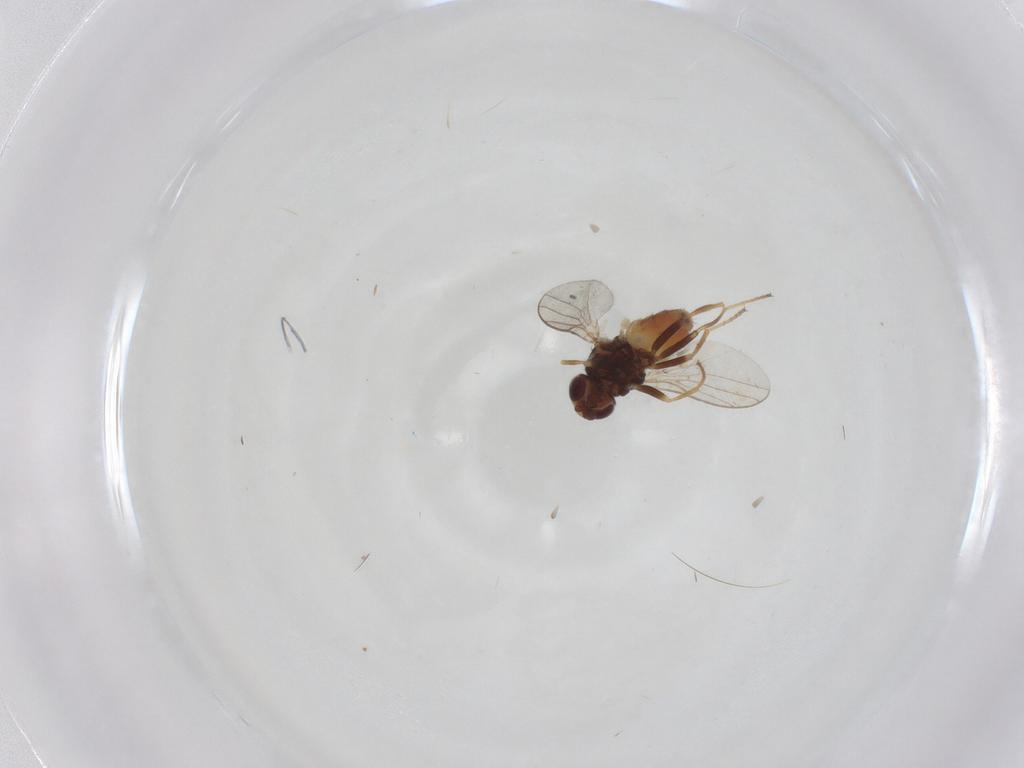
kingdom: Animalia
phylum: Arthropoda
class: Insecta
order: Diptera
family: Chloropidae
